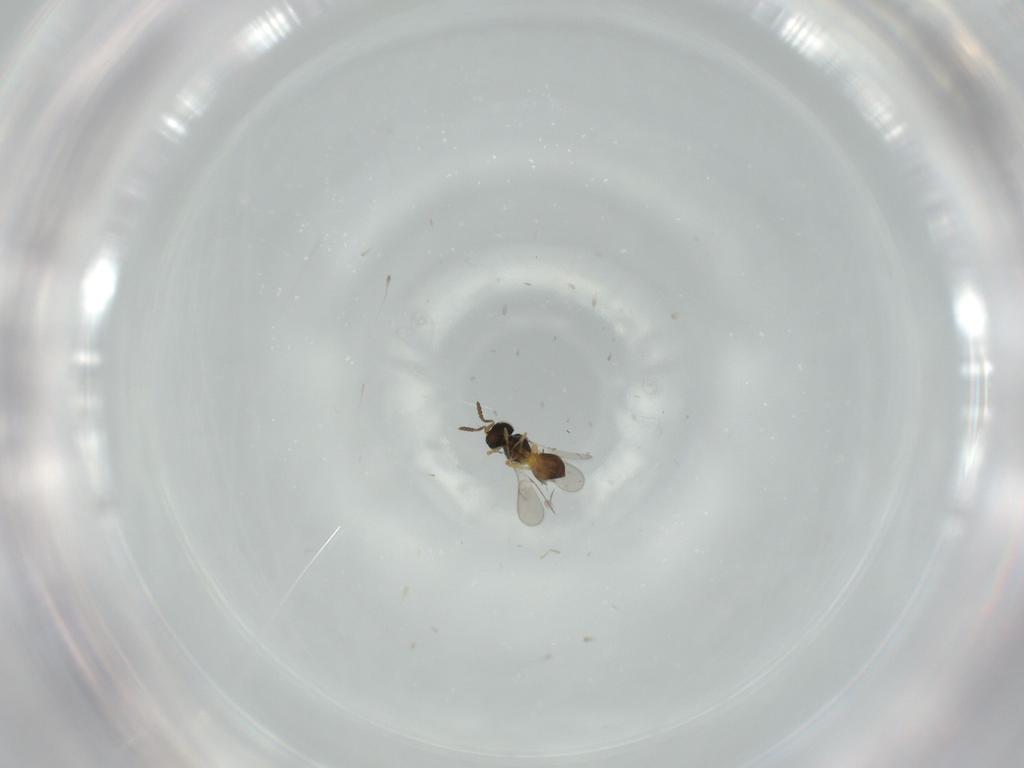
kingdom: Animalia
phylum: Arthropoda
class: Insecta
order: Hymenoptera
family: Scelionidae
